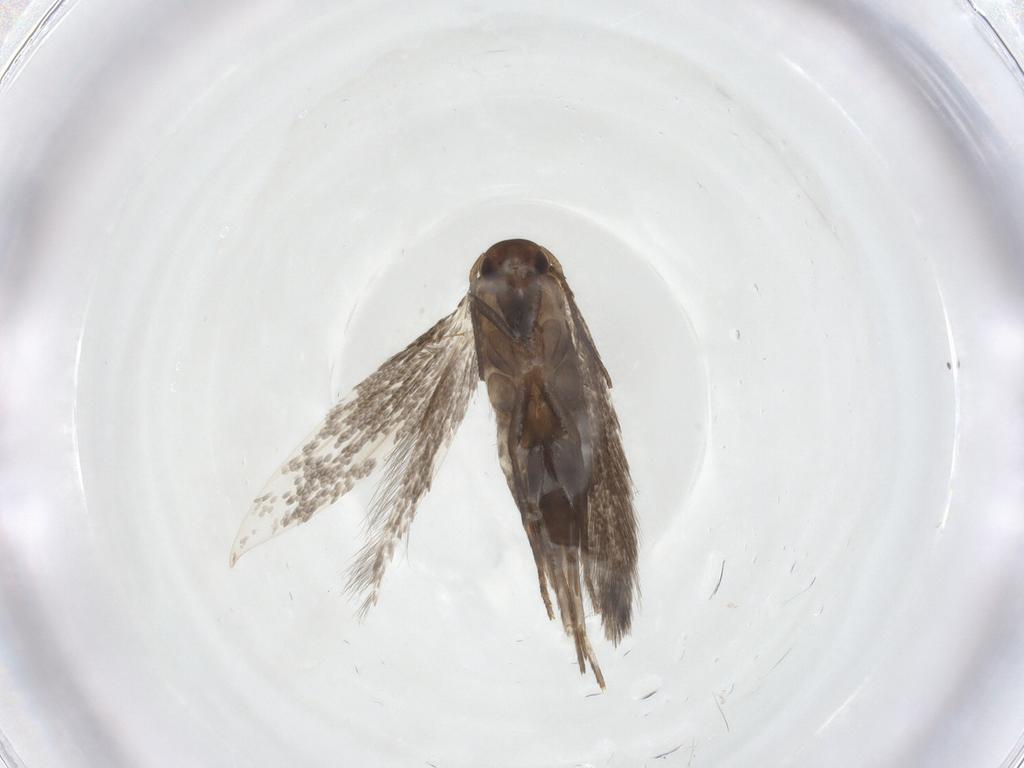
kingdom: Animalia
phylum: Arthropoda
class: Insecta
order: Lepidoptera
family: Elachistidae
